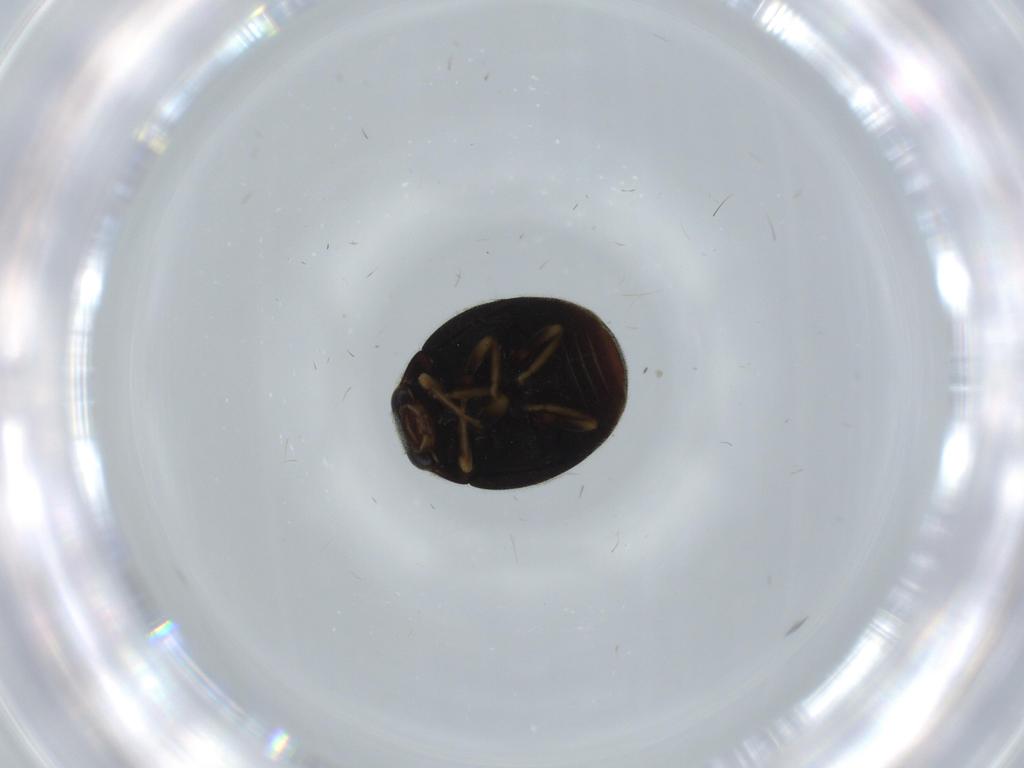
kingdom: Animalia
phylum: Arthropoda
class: Insecta
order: Coleoptera
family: Coccinellidae
